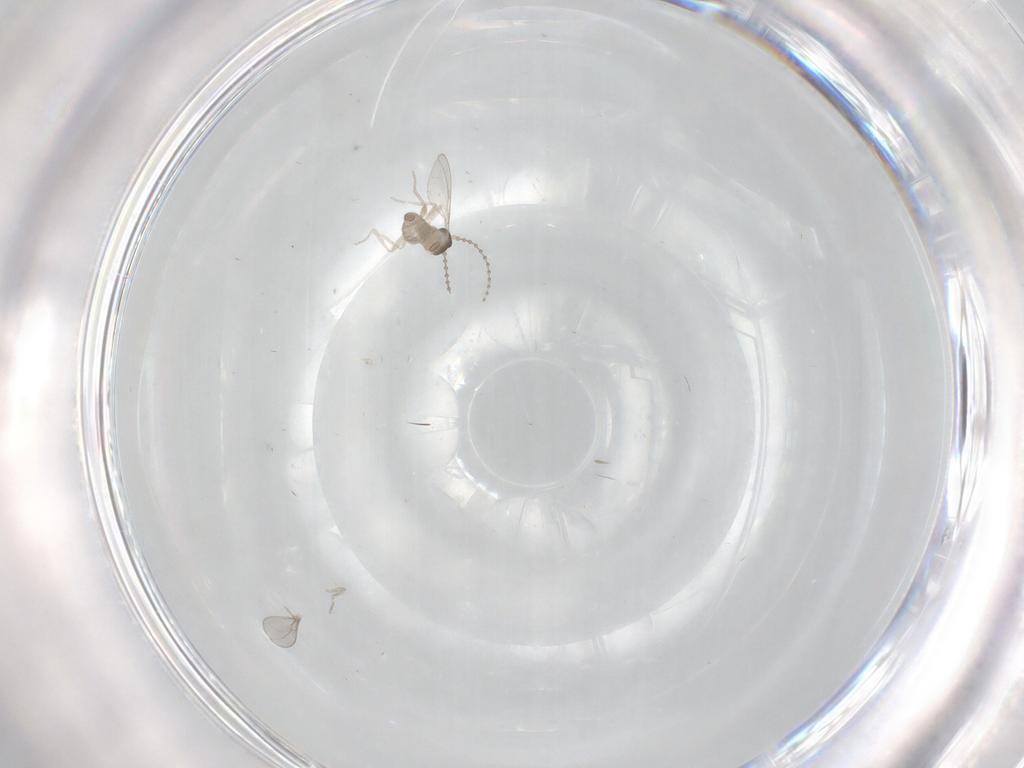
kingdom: Animalia
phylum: Arthropoda
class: Insecta
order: Diptera
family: Cecidomyiidae
